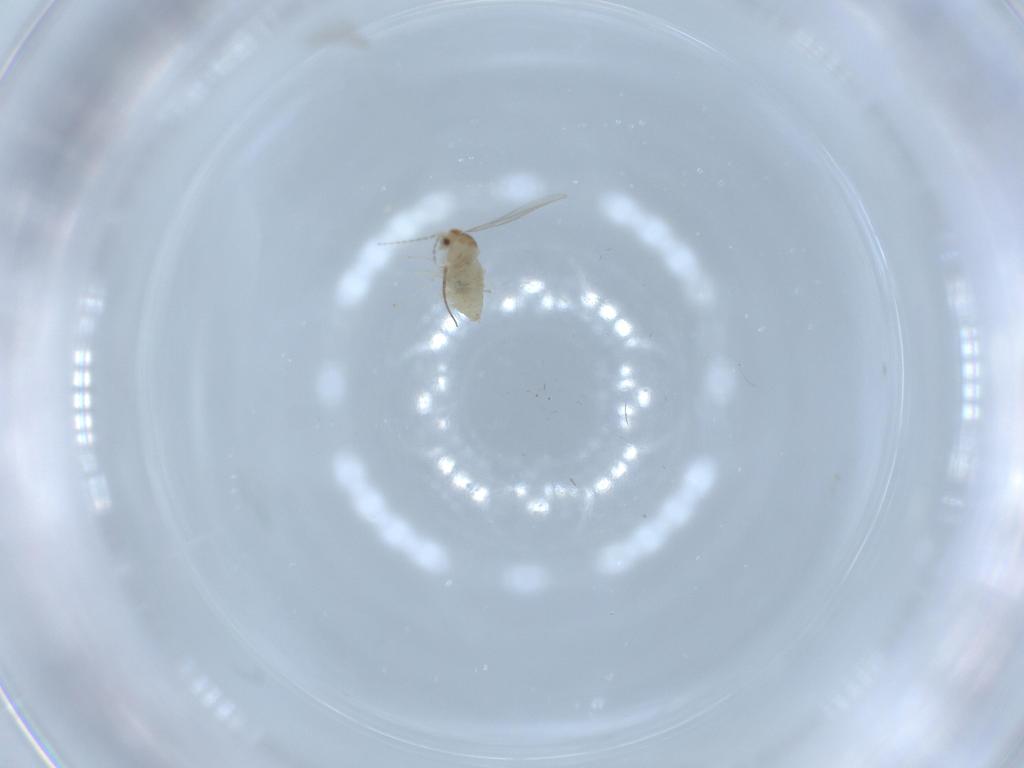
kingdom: Animalia
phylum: Arthropoda
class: Insecta
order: Diptera
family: Cecidomyiidae
